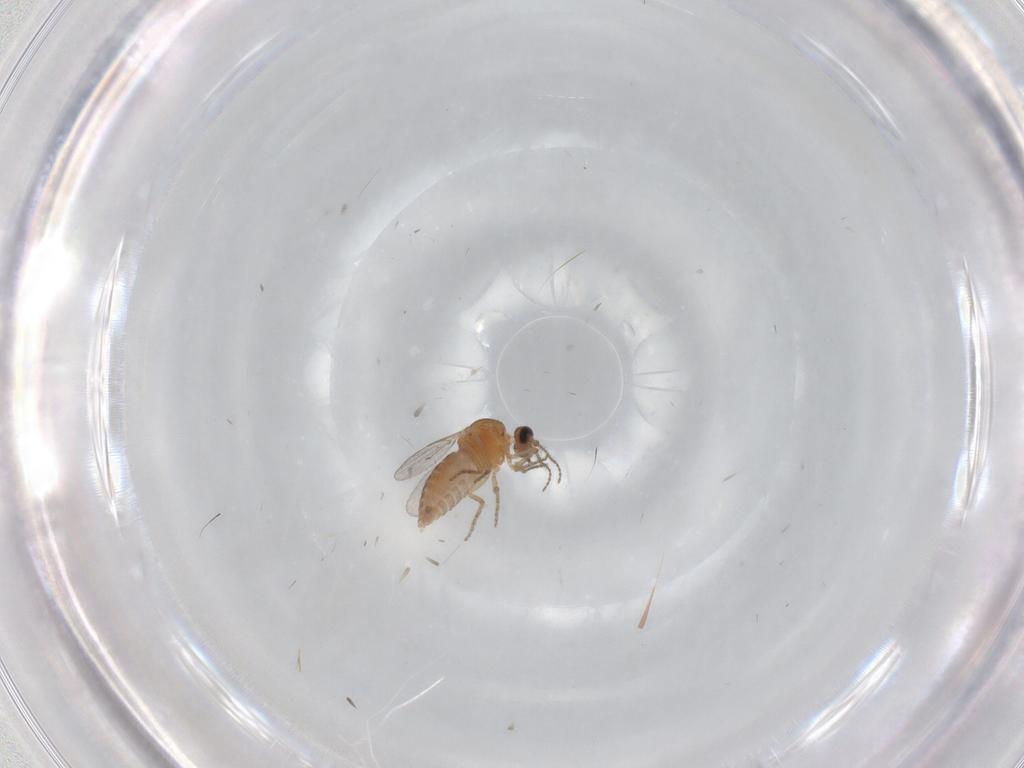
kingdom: Animalia
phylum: Arthropoda
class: Insecta
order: Diptera
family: Ceratopogonidae
